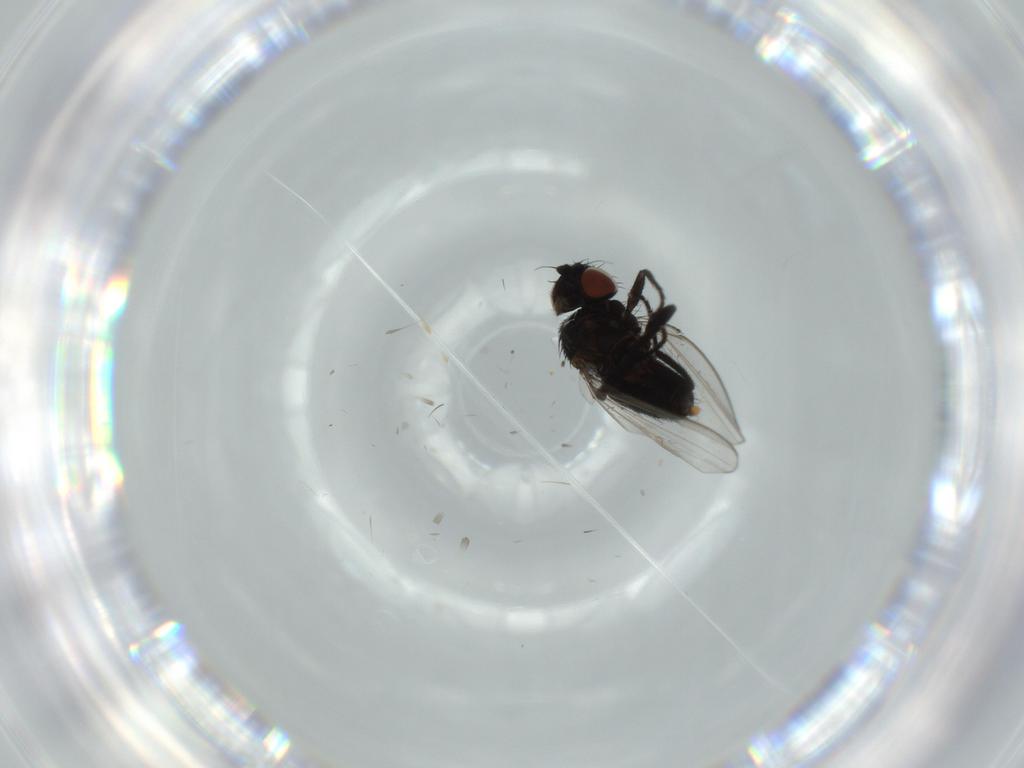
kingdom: Animalia
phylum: Arthropoda
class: Insecta
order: Diptera
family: Milichiidae
